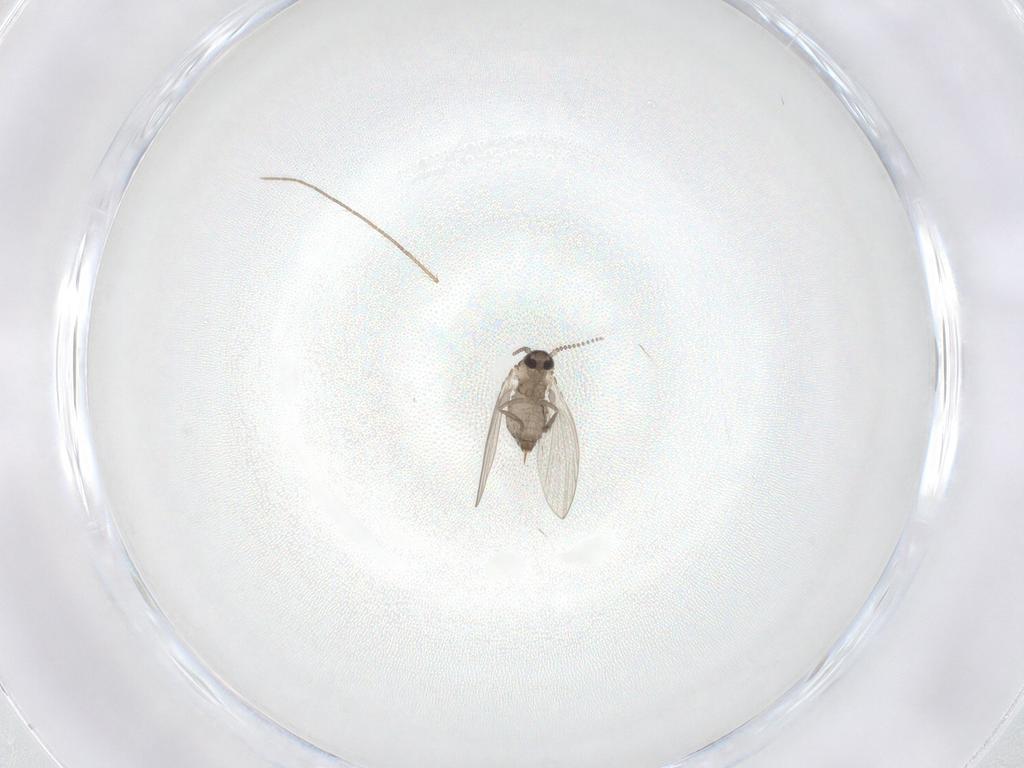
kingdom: Animalia
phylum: Arthropoda
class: Insecta
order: Diptera
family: Psychodidae
